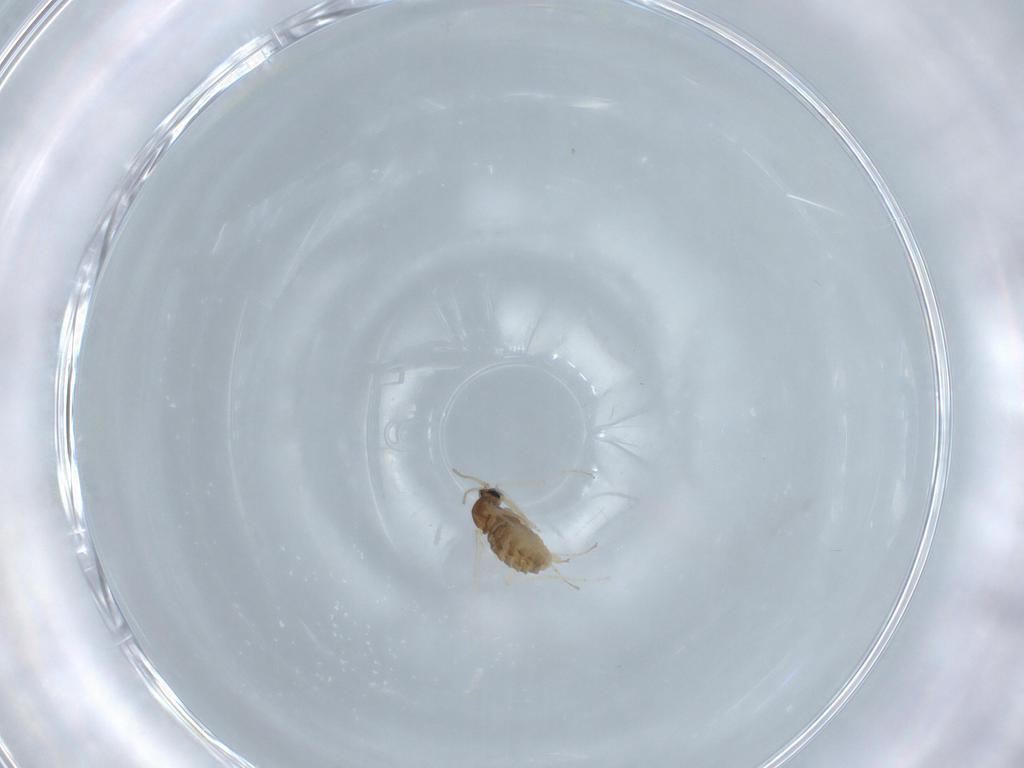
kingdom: Animalia
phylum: Arthropoda
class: Insecta
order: Diptera
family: Cecidomyiidae
